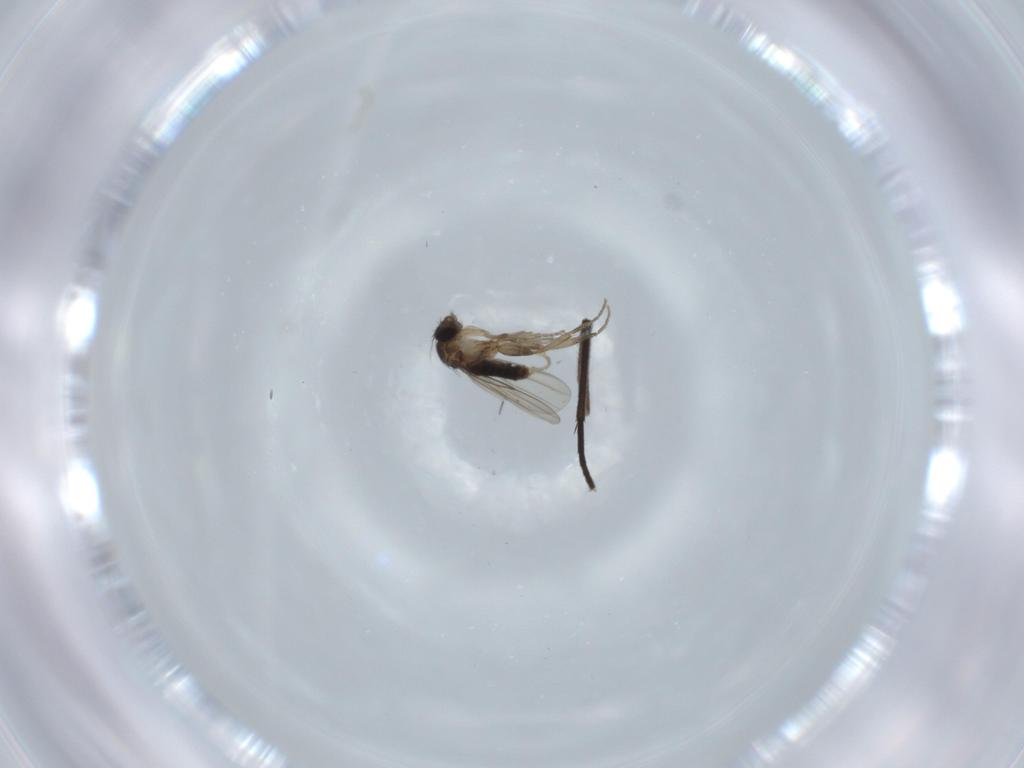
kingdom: Animalia
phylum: Arthropoda
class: Insecta
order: Diptera
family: Phoridae
